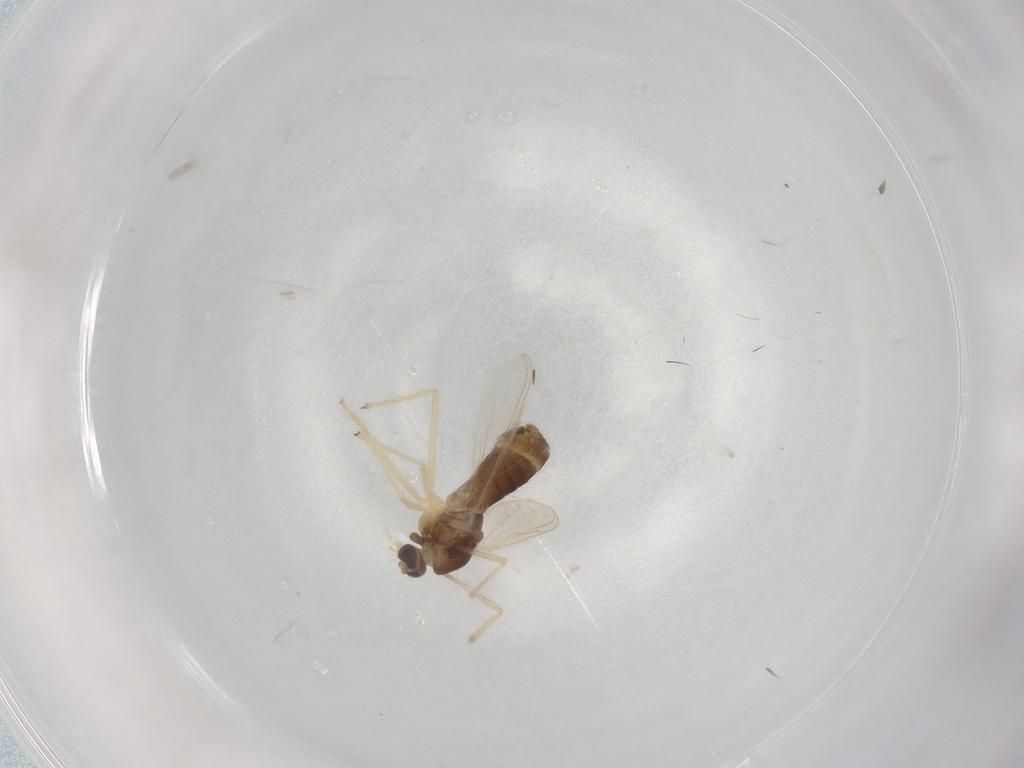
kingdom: Animalia
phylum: Arthropoda
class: Insecta
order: Diptera
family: Chironomidae
